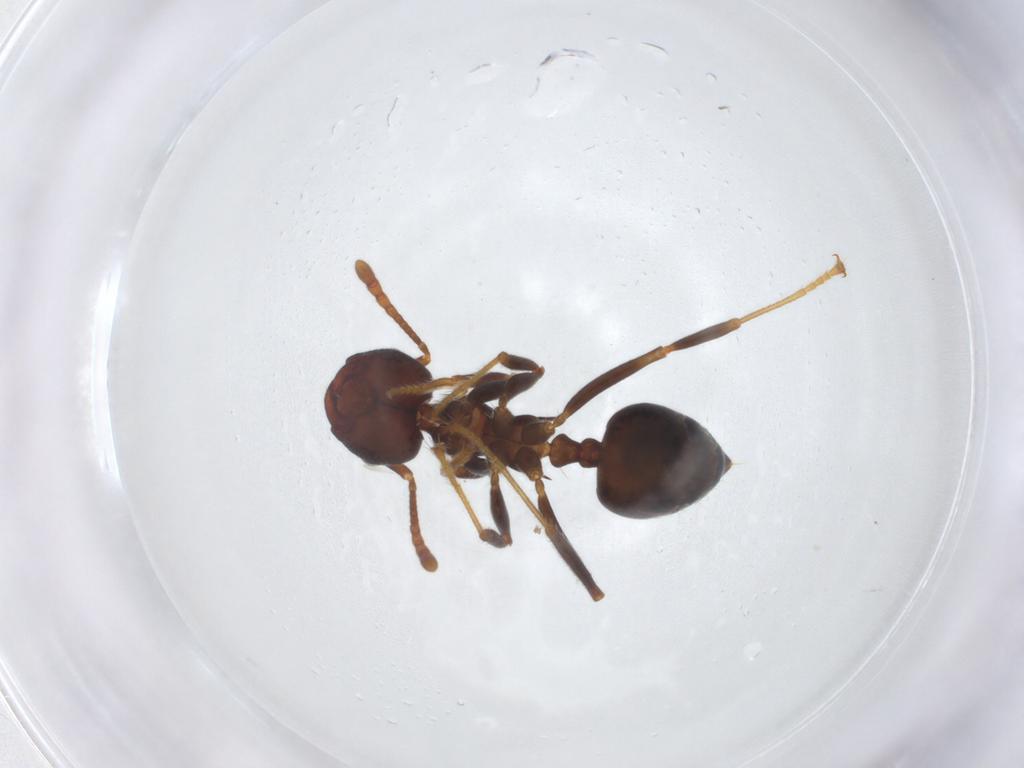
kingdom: Animalia
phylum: Arthropoda
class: Insecta
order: Hymenoptera
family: Formicidae
